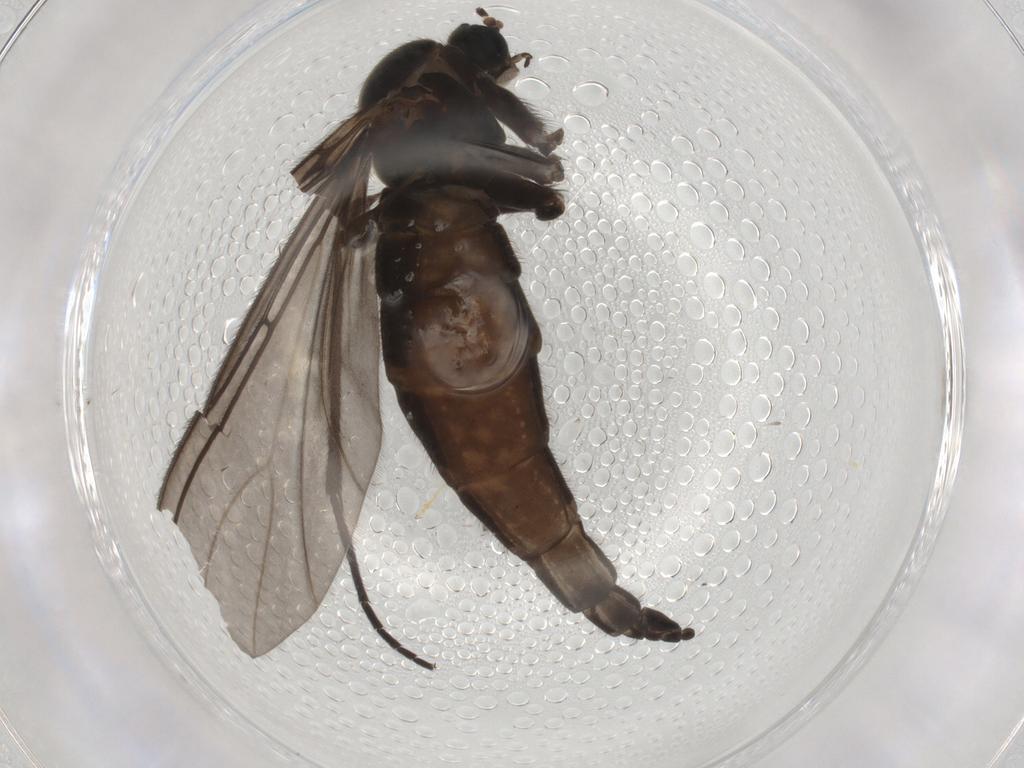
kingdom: Animalia
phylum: Arthropoda
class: Insecta
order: Diptera
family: Sciaridae
